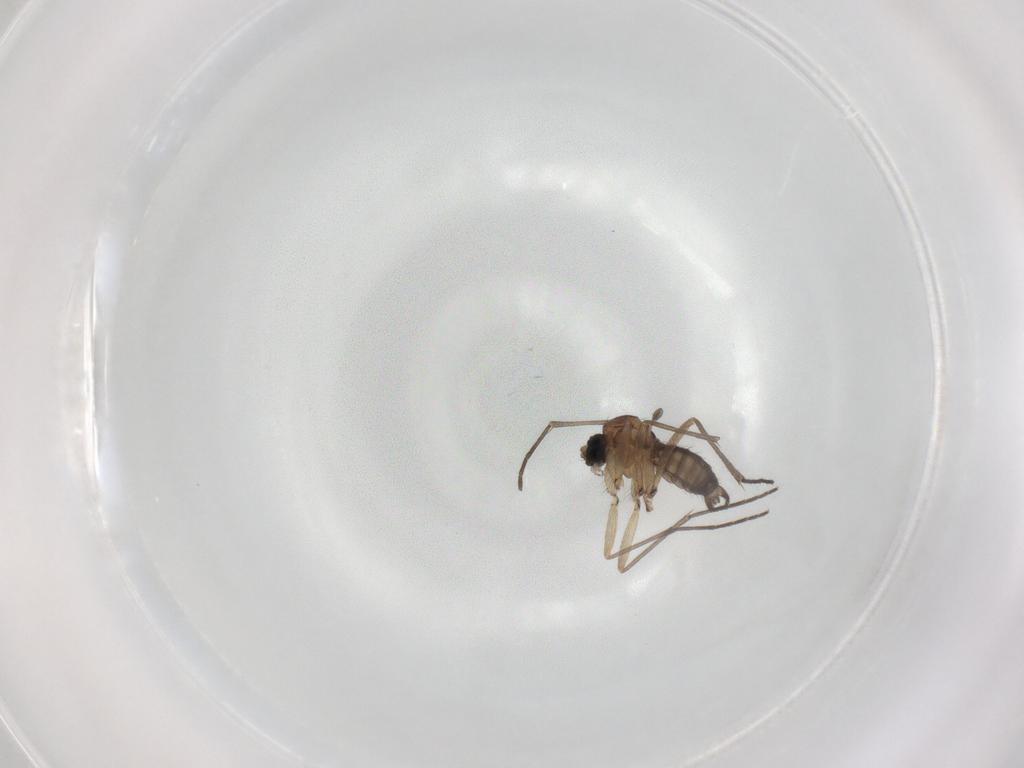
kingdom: Animalia
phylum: Arthropoda
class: Insecta
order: Diptera
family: Sciaridae
